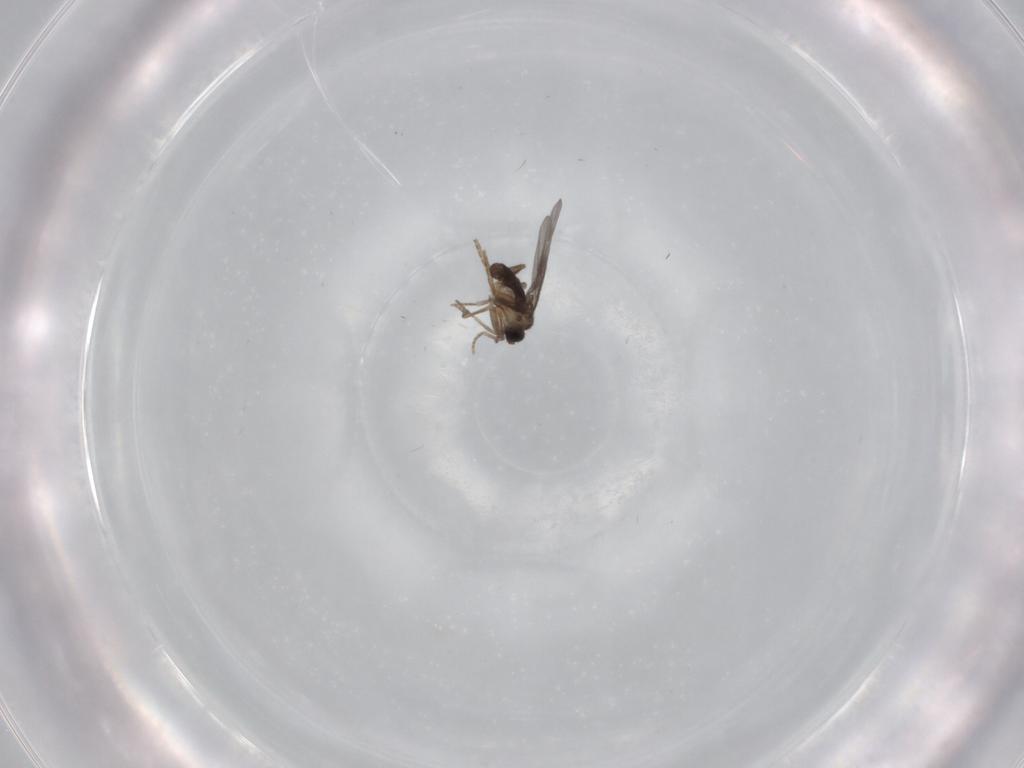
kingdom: Animalia
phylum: Arthropoda
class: Insecta
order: Diptera
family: Mycetophilidae
